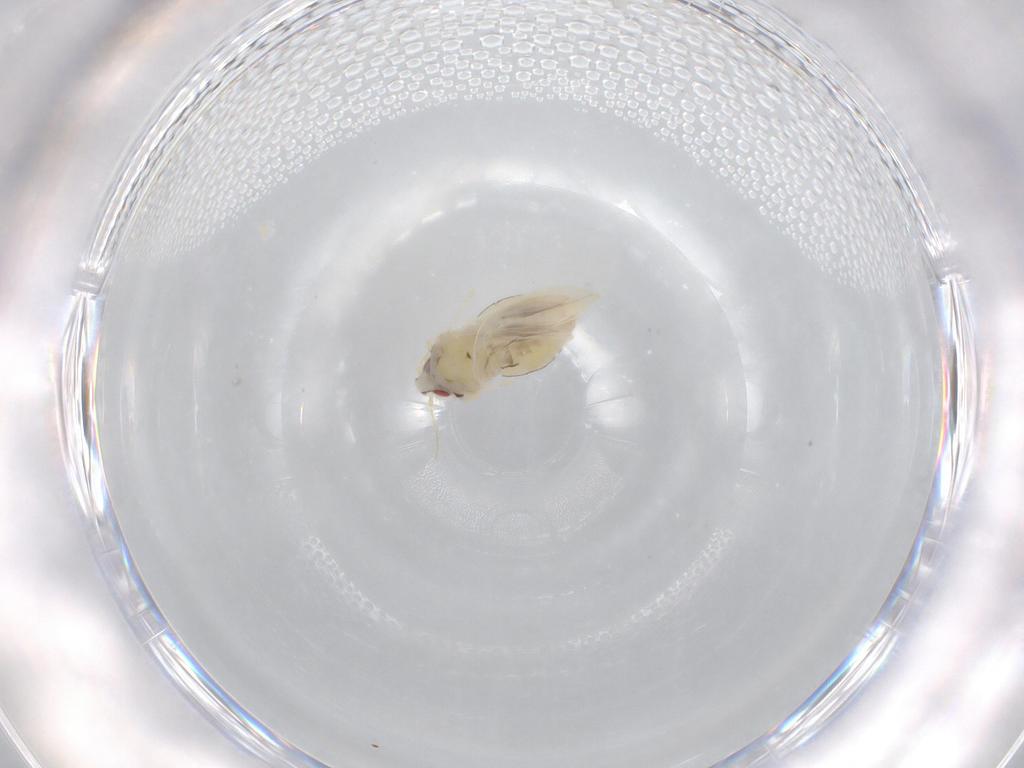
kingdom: Animalia
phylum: Arthropoda
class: Insecta
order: Hemiptera
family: Aleyrodidae
